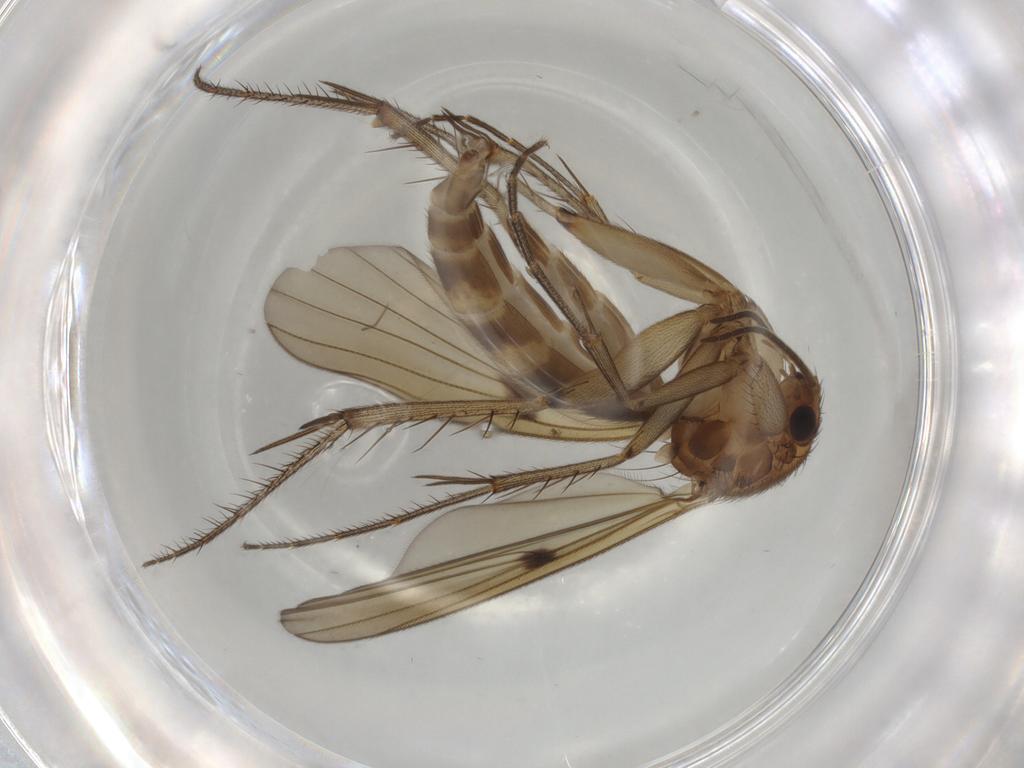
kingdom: Animalia
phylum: Arthropoda
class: Insecta
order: Diptera
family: Mycetophilidae
